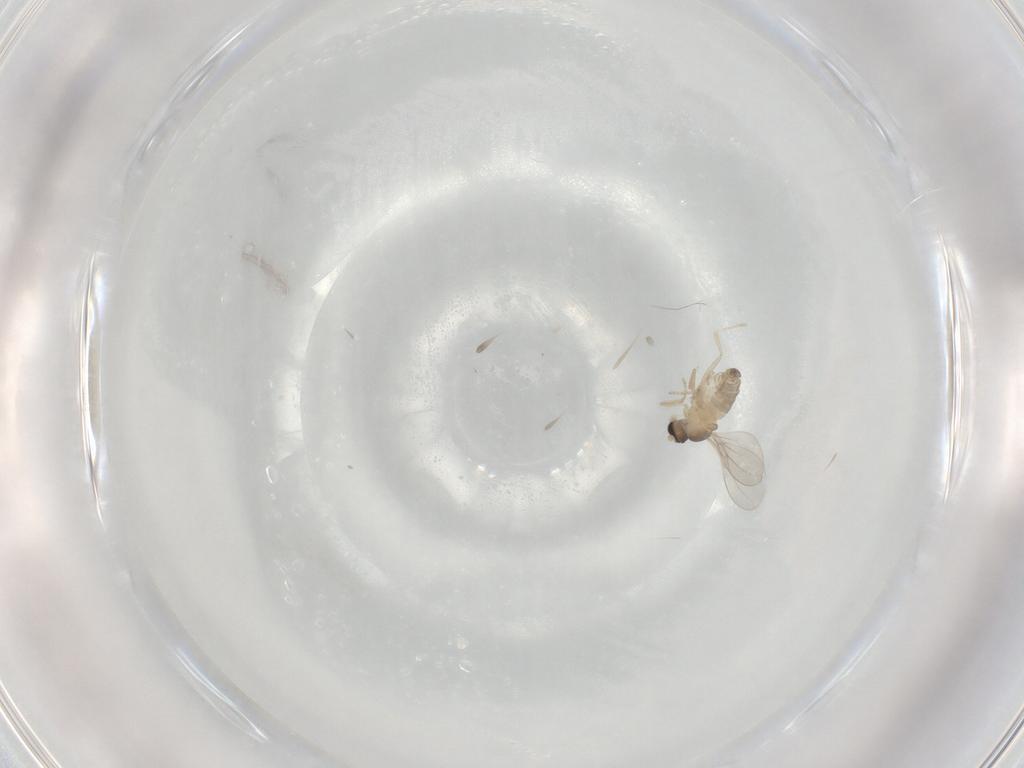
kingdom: Animalia
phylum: Arthropoda
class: Insecta
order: Diptera
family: Cecidomyiidae
